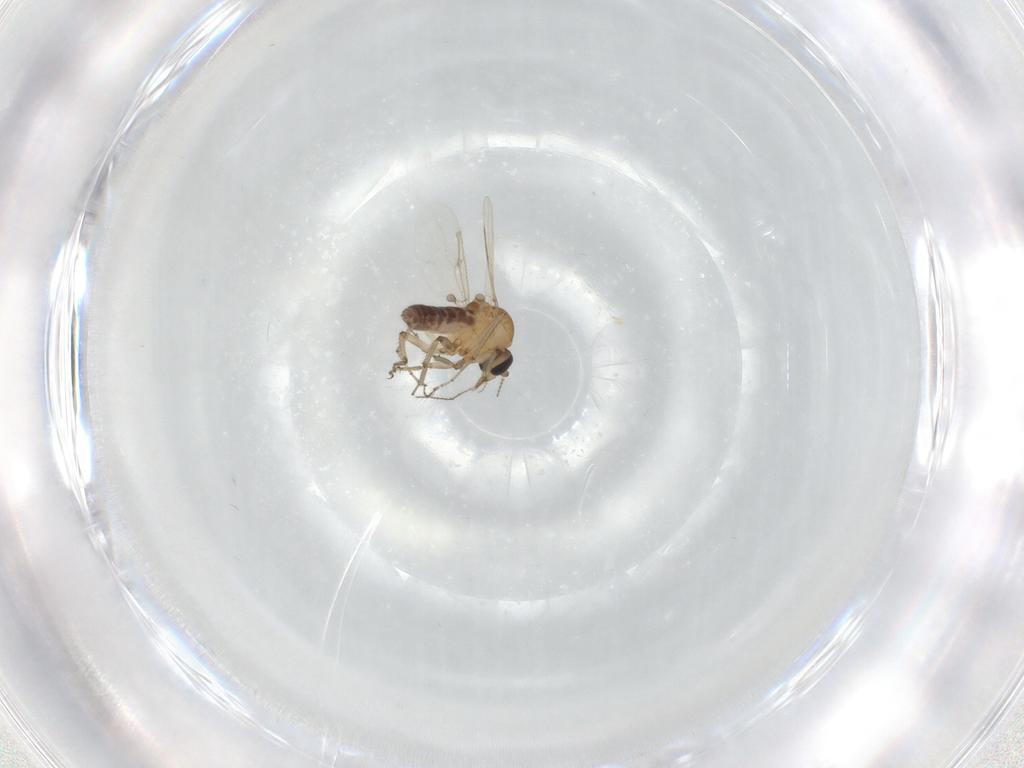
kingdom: Animalia
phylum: Arthropoda
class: Insecta
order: Diptera
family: Ceratopogonidae
